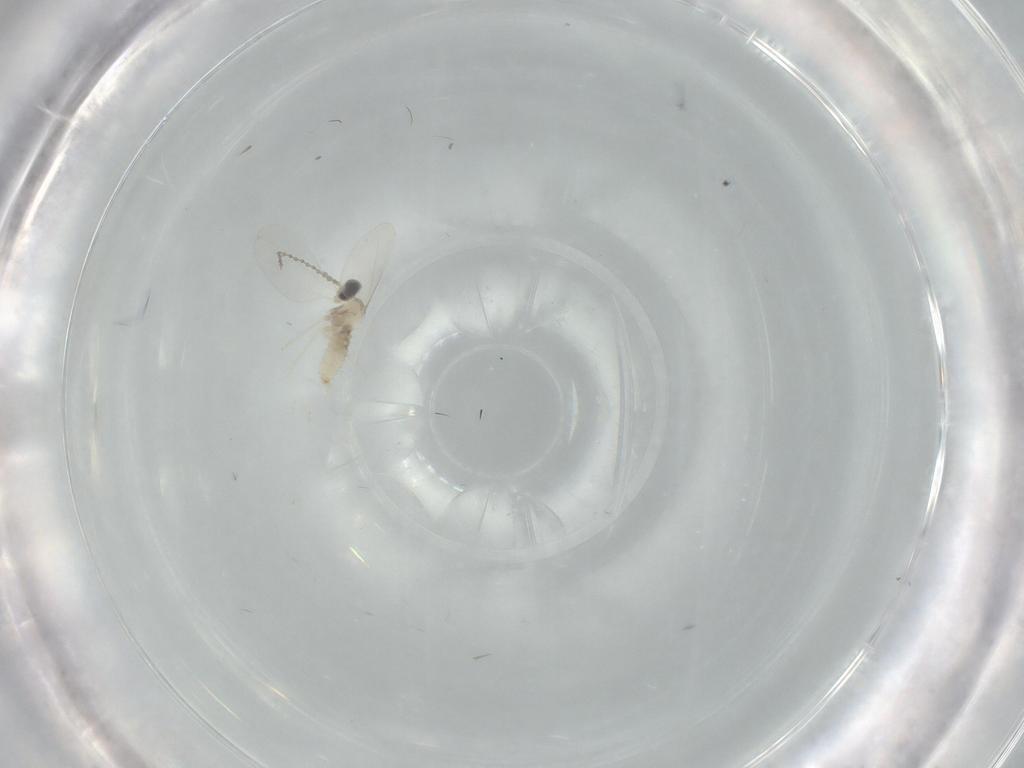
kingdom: Animalia
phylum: Arthropoda
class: Insecta
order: Diptera
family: Cecidomyiidae
